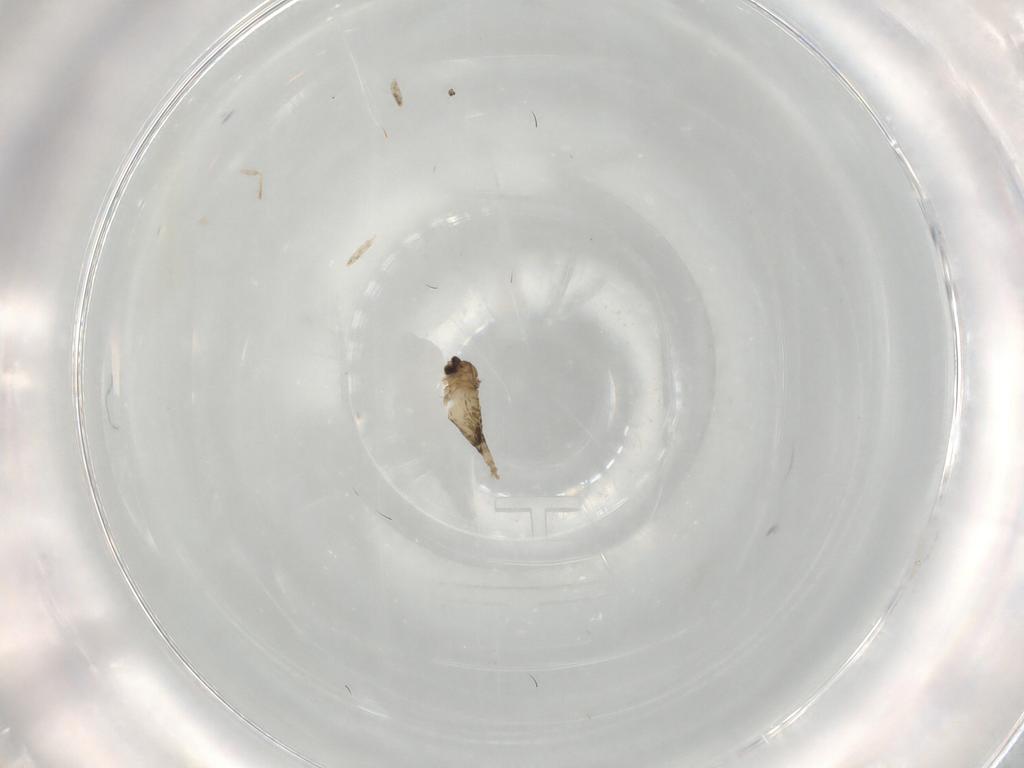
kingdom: Animalia
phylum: Arthropoda
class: Insecta
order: Diptera
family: Cecidomyiidae
